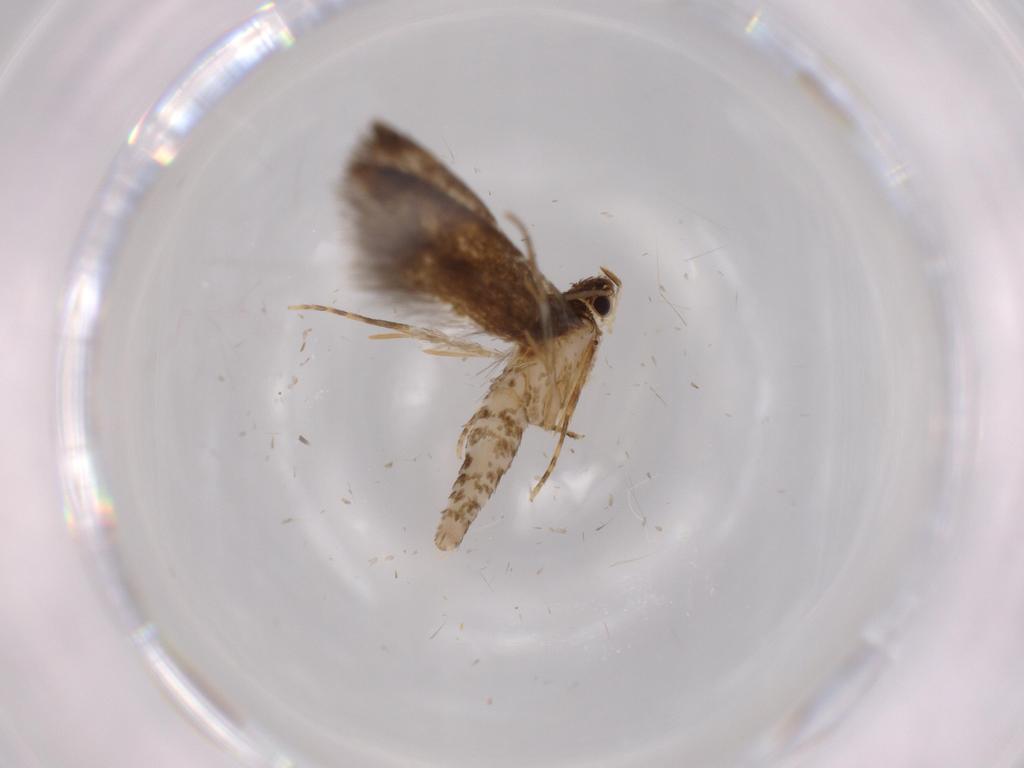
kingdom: Animalia
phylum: Arthropoda
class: Insecta
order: Lepidoptera
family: Tineidae
